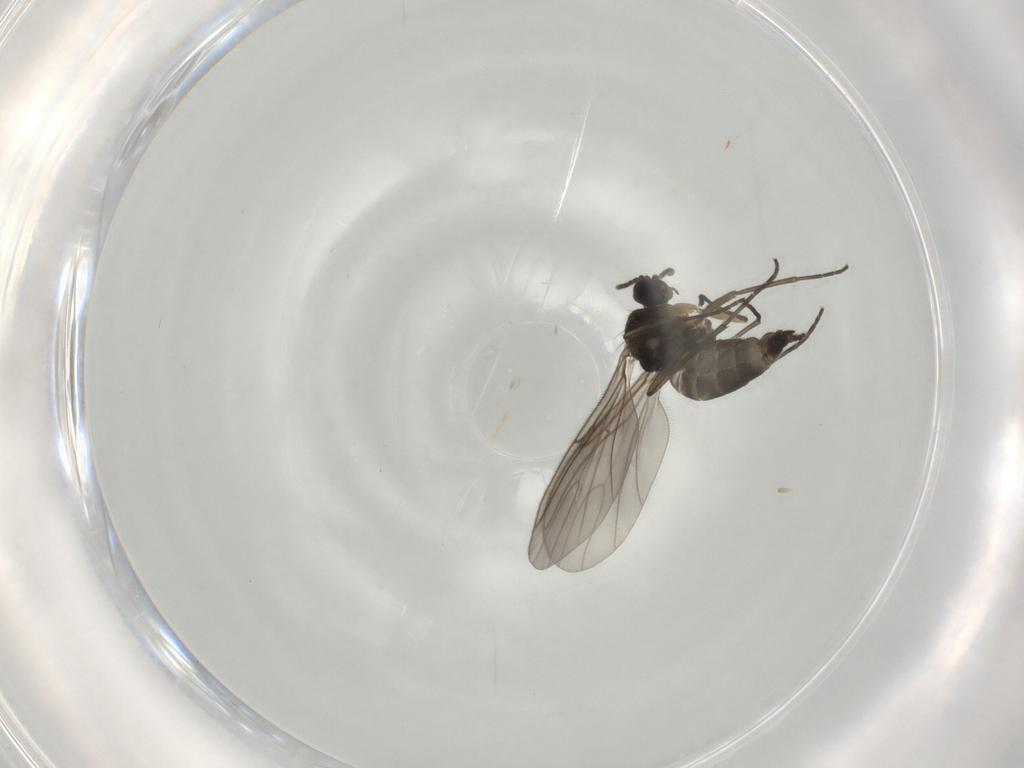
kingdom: Animalia
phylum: Arthropoda
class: Insecta
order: Diptera
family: Sciaridae
